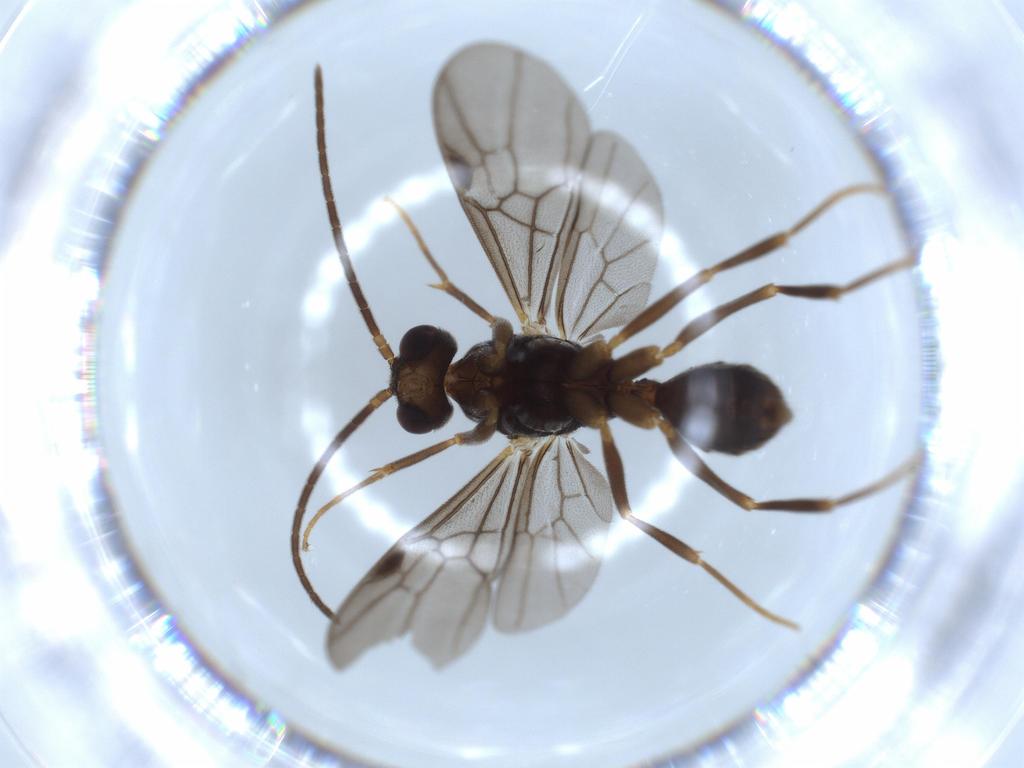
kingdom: Animalia
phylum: Arthropoda
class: Insecta
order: Hymenoptera
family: Formicidae
